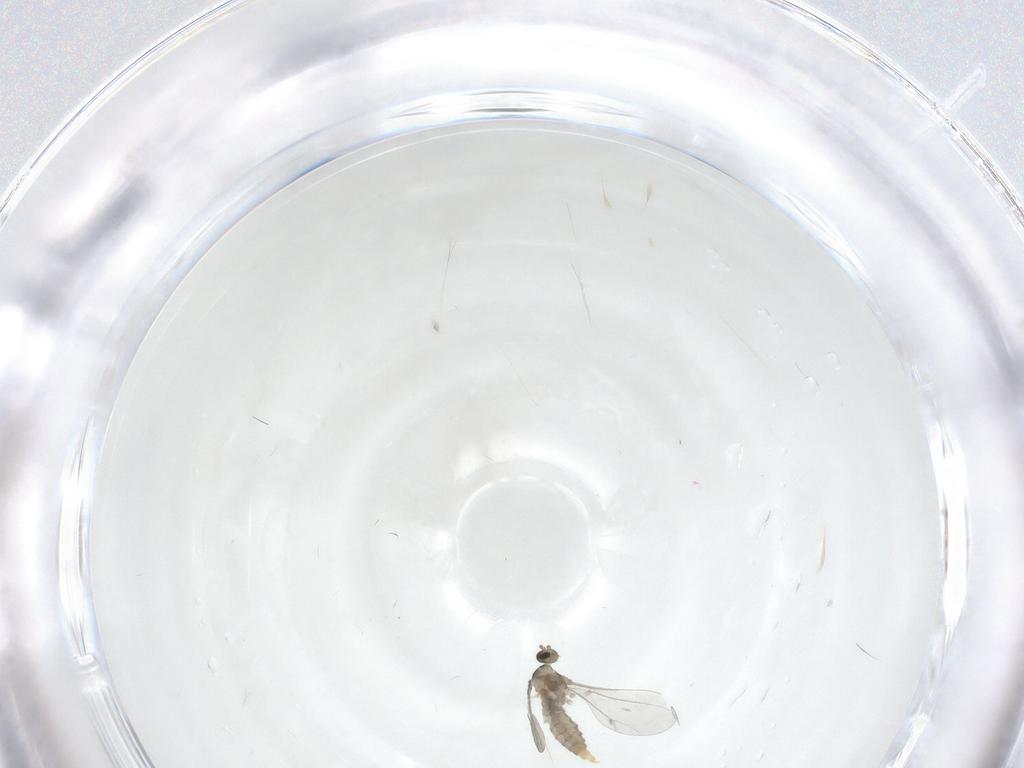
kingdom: Animalia
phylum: Arthropoda
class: Insecta
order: Diptera
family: Cecidomyiidae
